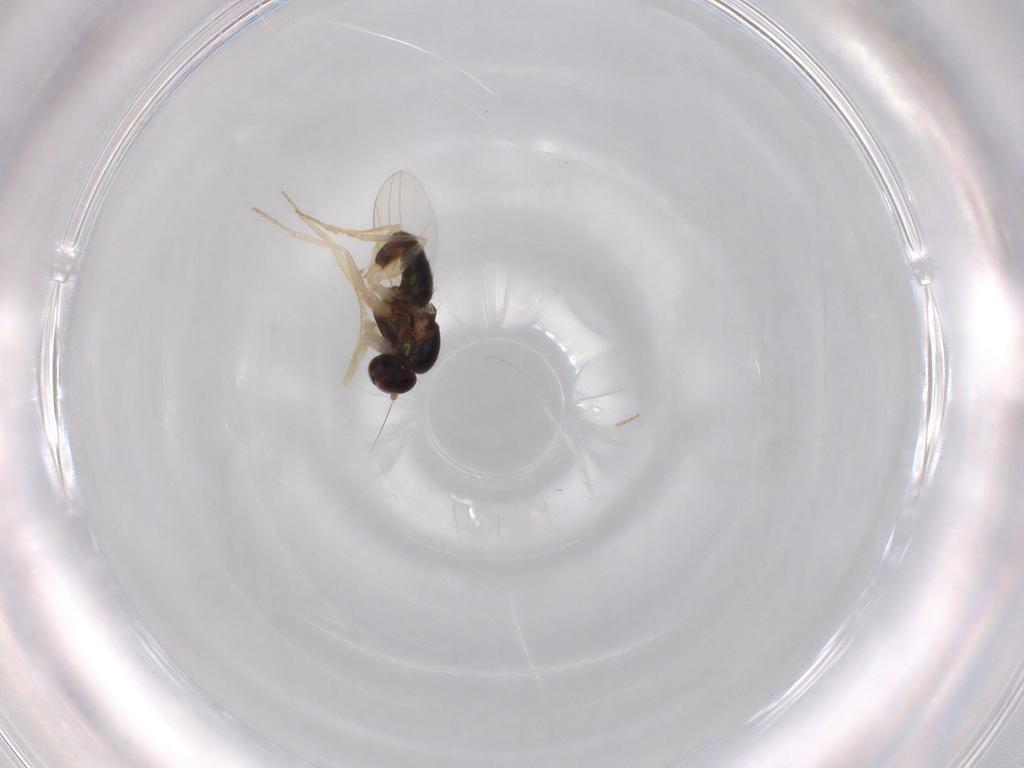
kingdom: Animalia
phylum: Arthropoda
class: Insecta
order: Diptera
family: Dolichopodidae
